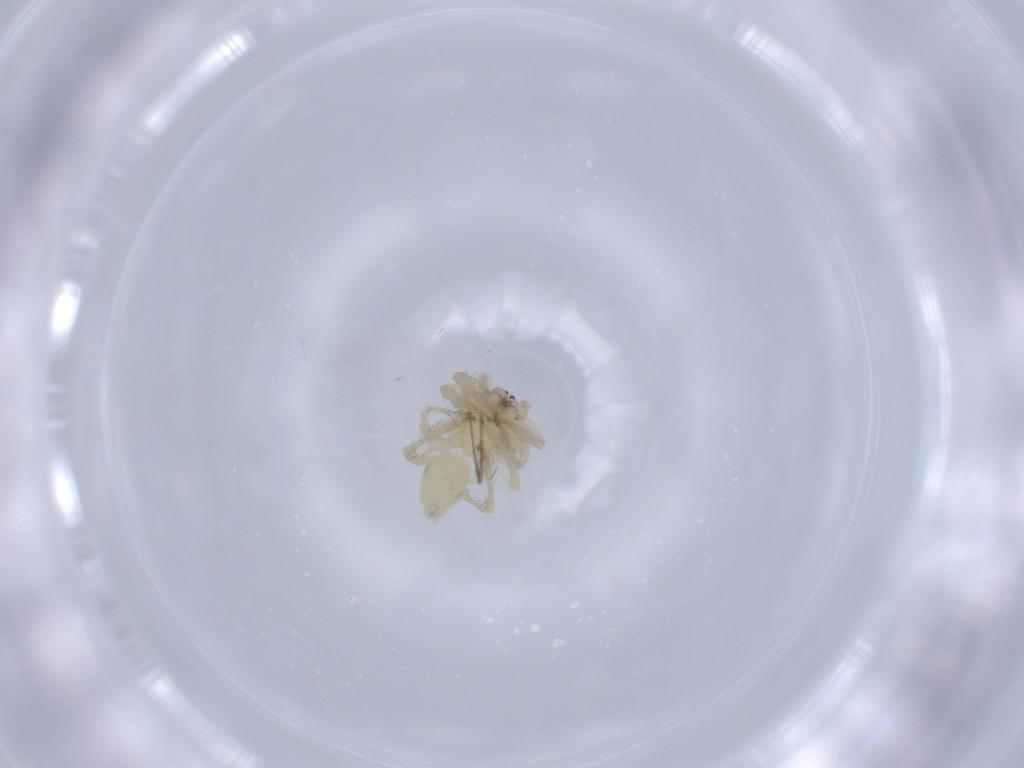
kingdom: Animalia
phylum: Arthropoda
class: Arachnida
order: Araneae
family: Anyphaenidae
